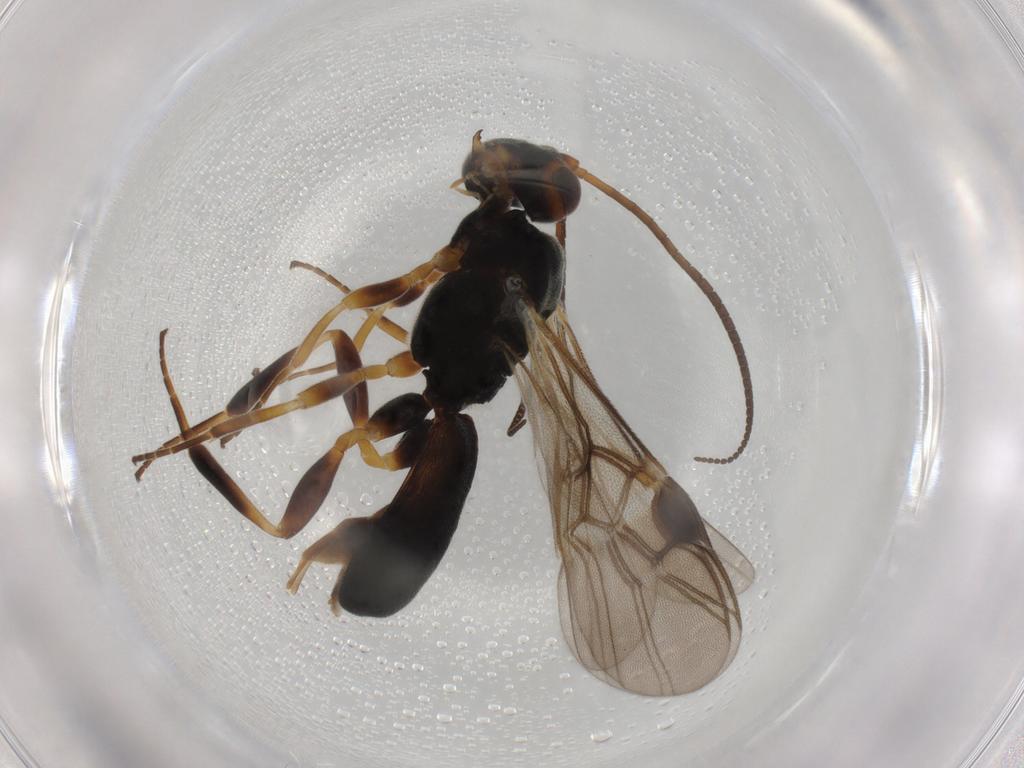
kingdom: Animalia
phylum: Arthropoda
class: Insecta
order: Hymenoptera
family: Braconidae
